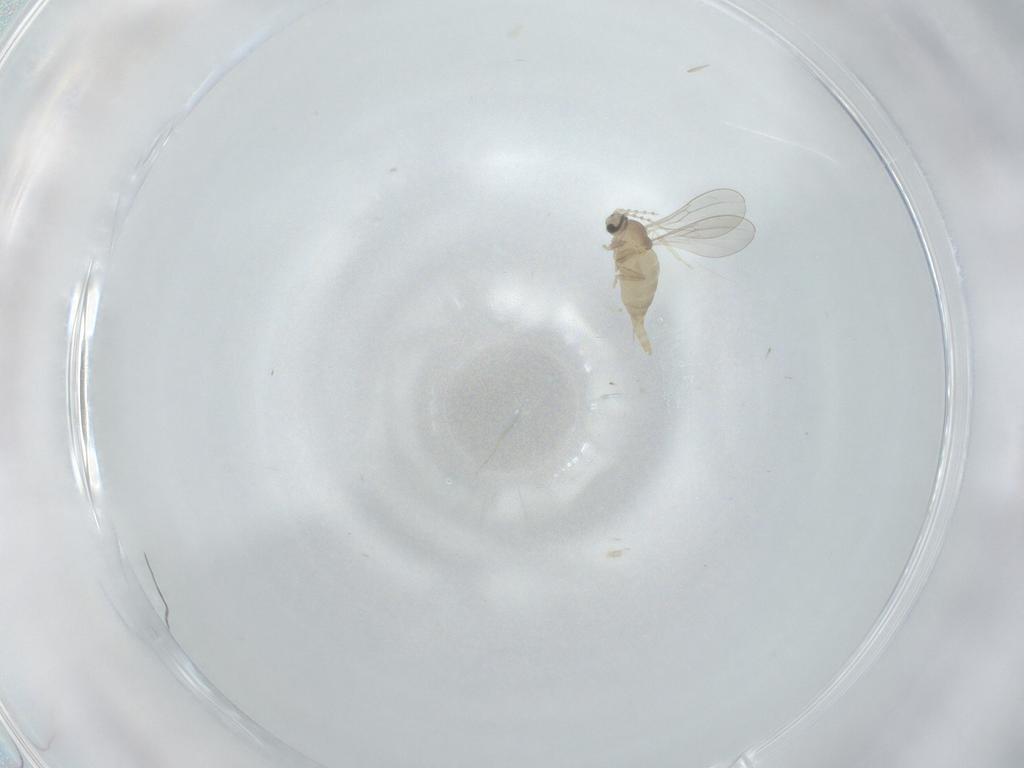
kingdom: Animalia
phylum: Arthropoda
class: Insecta
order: Diptera
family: Cecidomyiidae
